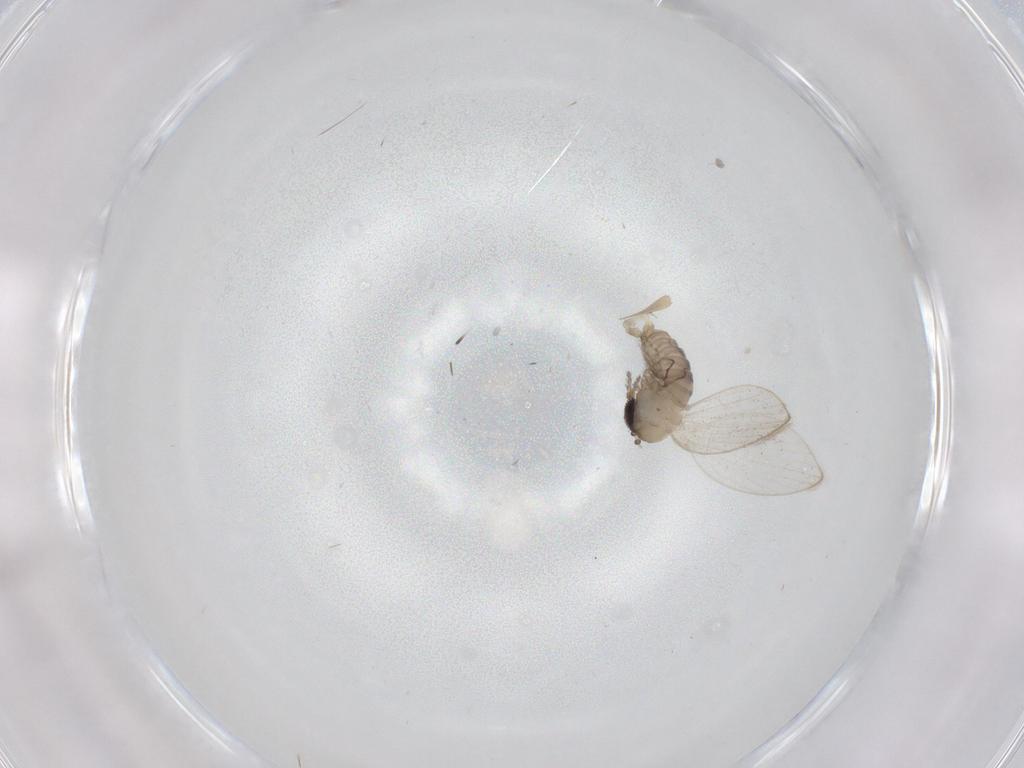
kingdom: Animalia
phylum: Arthropoda
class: Insecta
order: Diptera
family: Psychodidae
